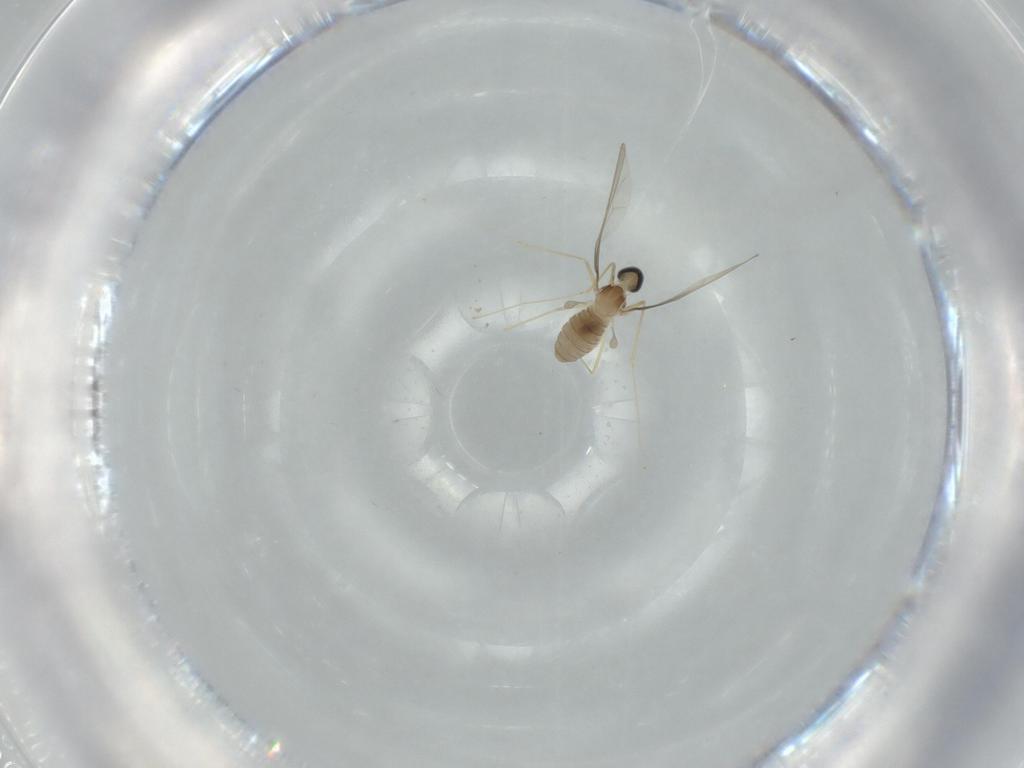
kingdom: Animalia
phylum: Arthropoda
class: Insecta
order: Diptera
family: Cecidomyiidae
